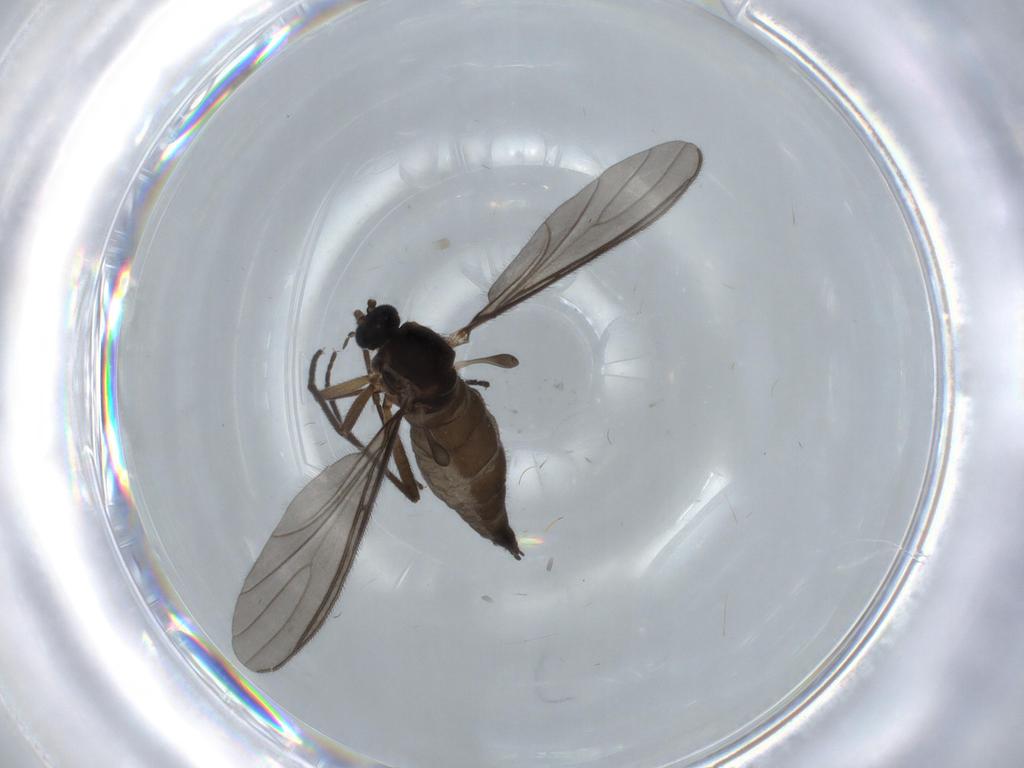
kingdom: Animalia
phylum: Arthropoda
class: Insecta
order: Diptera
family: Sciaridae
